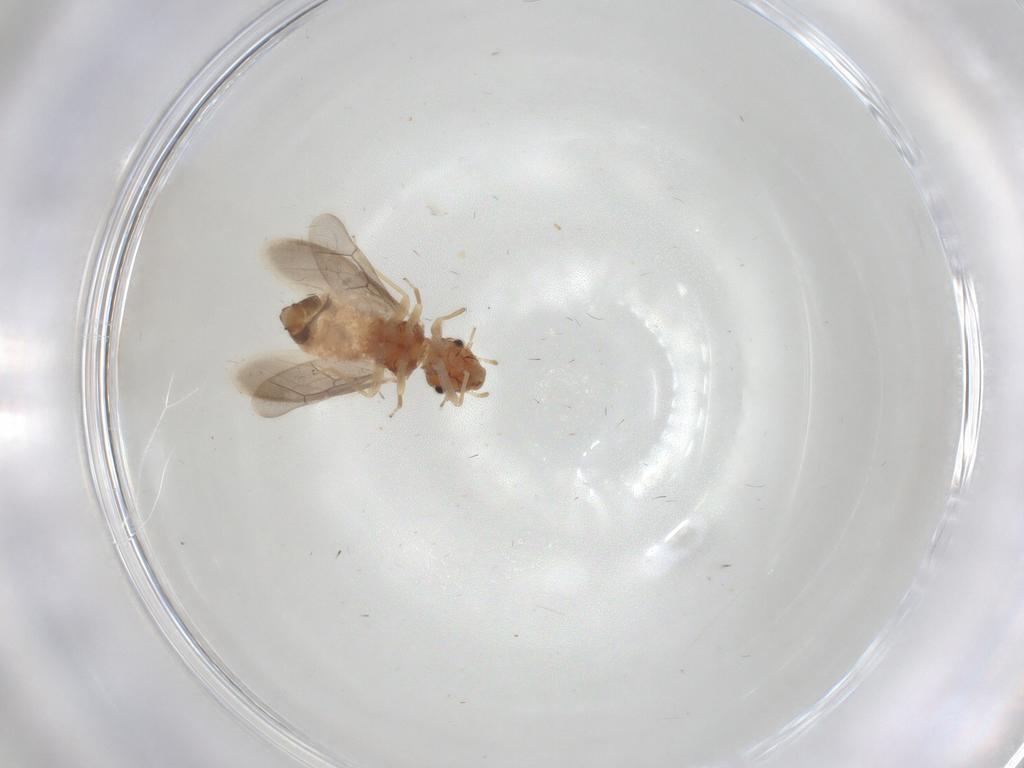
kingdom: Animalia
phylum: Arthropoda
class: Insecta
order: Psocodea
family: Archipsocidae
